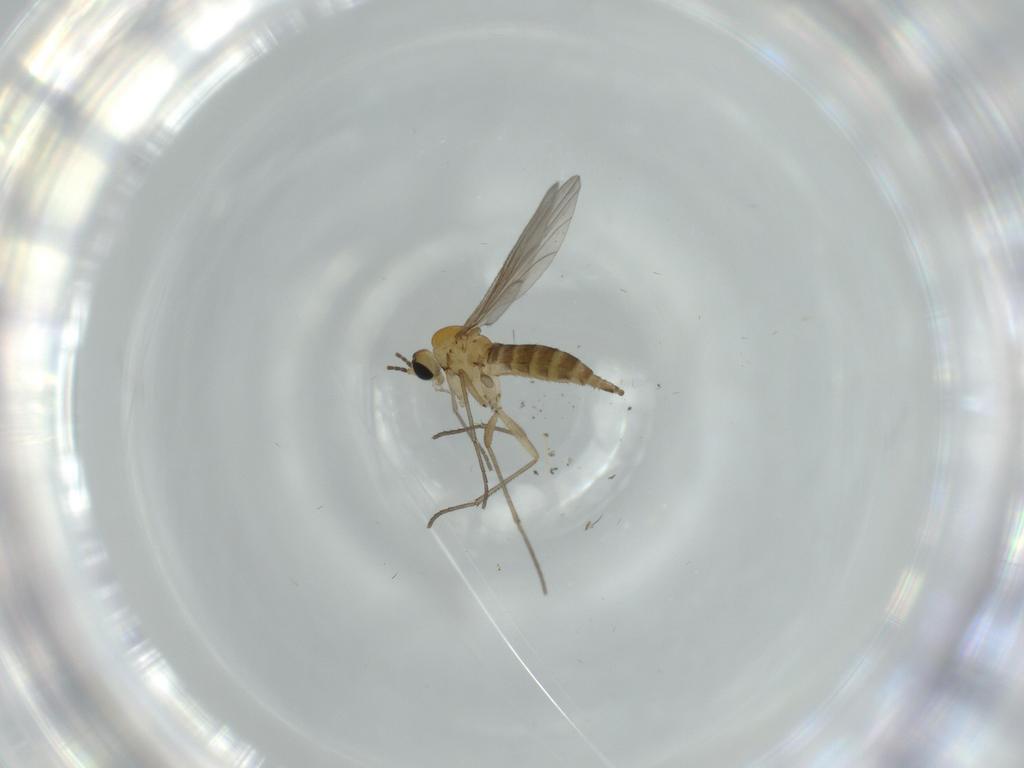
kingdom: Animalia
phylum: Arthropoda
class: Insecta
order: Diptera
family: Sciaridae
